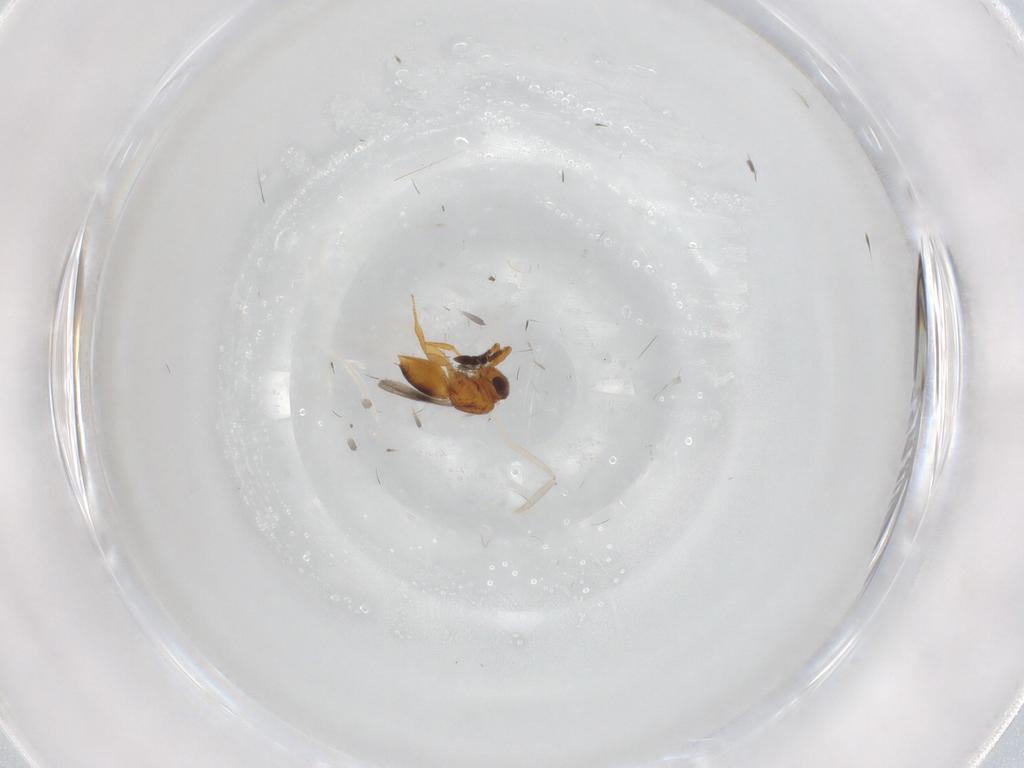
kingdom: Animalia
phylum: Arthropoda
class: Insecta
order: Hymenoptera
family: Ceraphronidae
